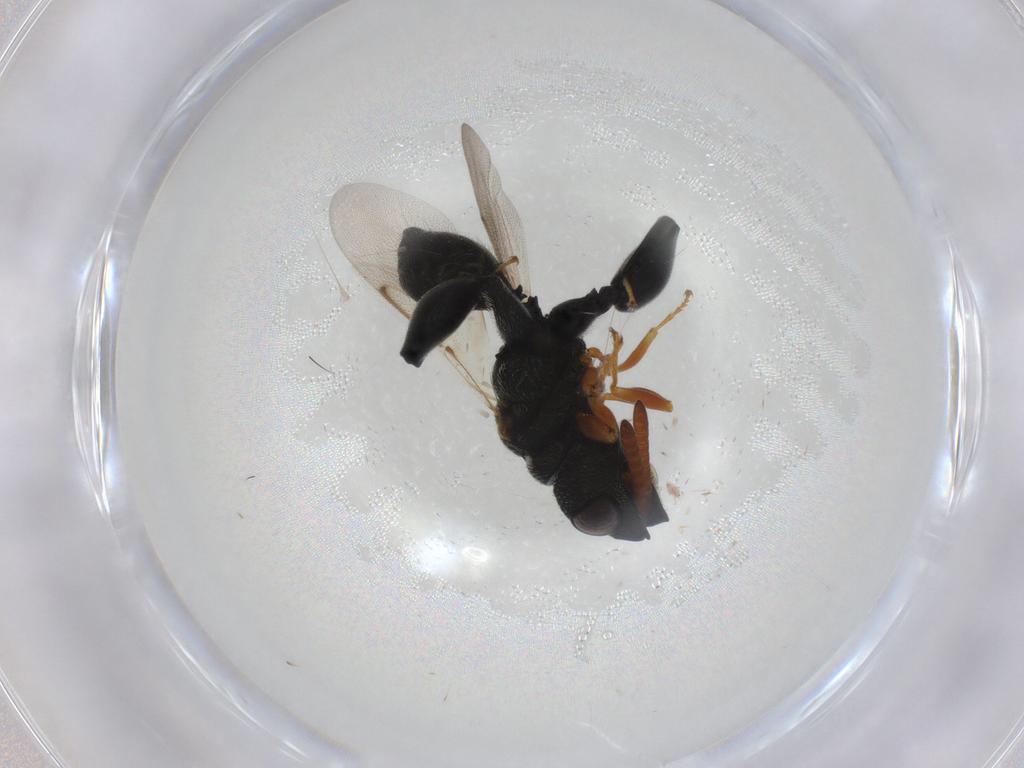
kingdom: Animalia
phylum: Arthropoda
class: Insecta
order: Hymenoptera
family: Chalcididae
